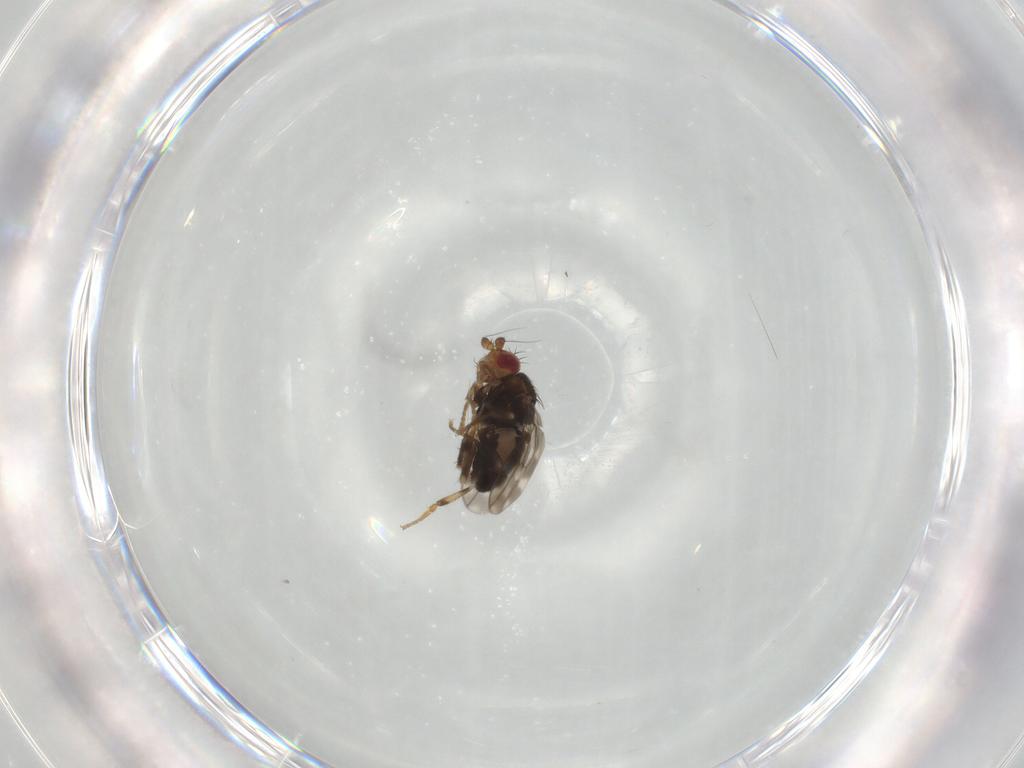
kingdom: Animalia
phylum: Arthropoda
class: Insecta
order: Diptera
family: Sphaeroceridae
